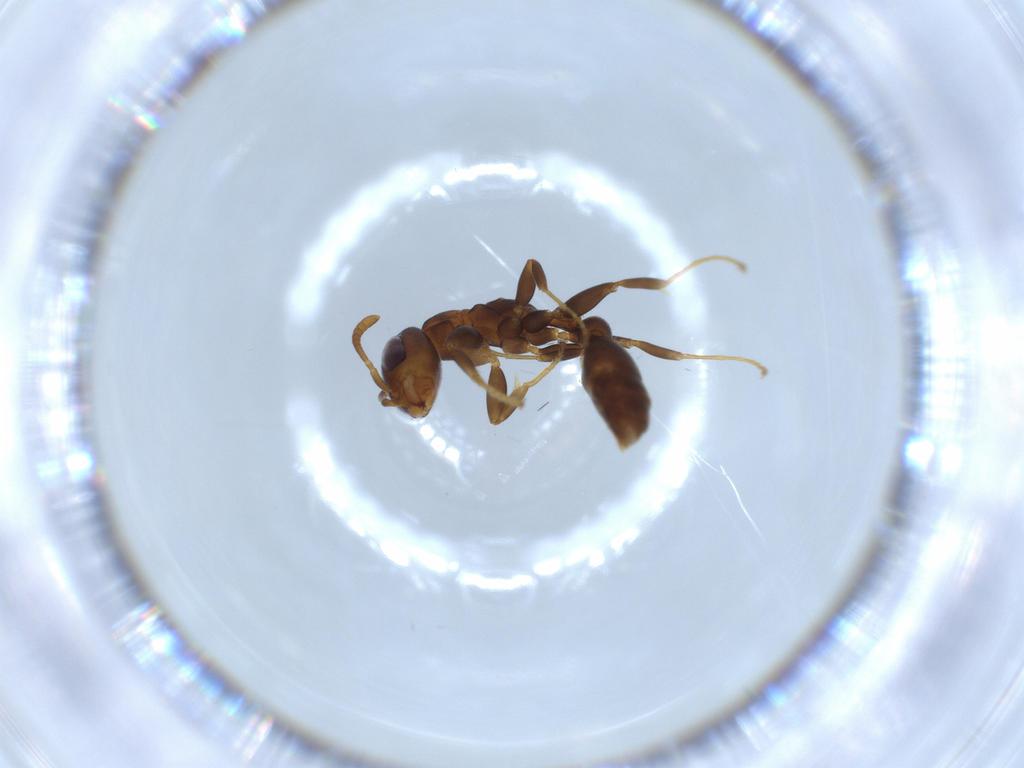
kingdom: Animalia
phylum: Arthropoda
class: Insecta
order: Hymenoptera
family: Formicidae
